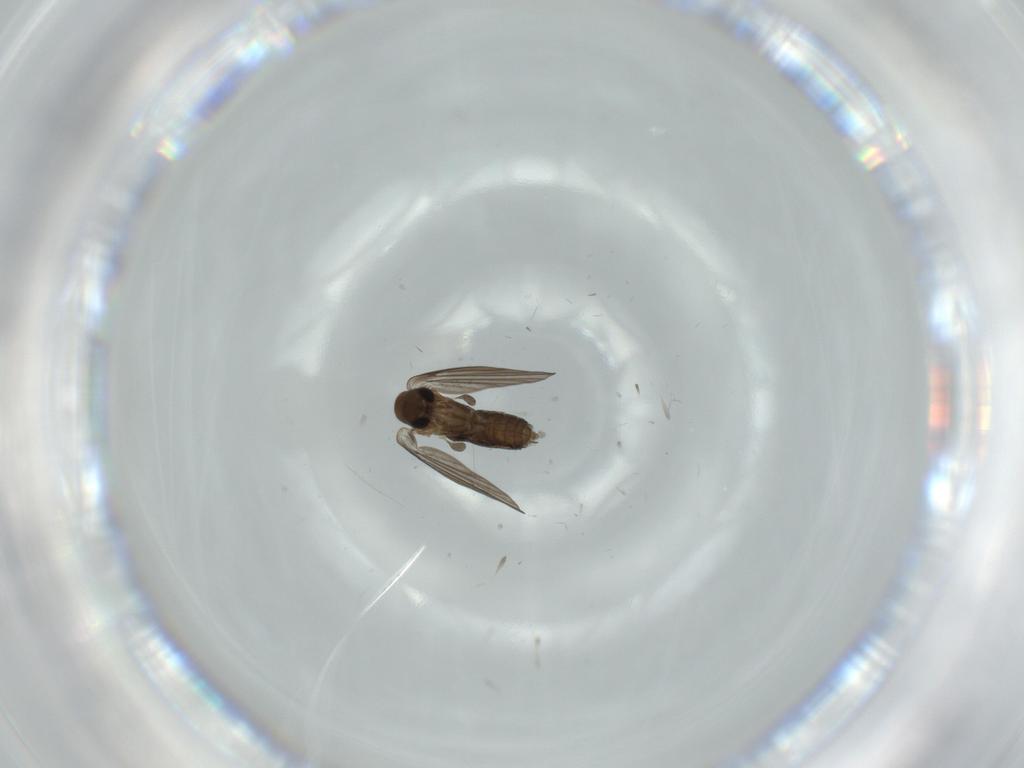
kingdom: Animalia
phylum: Arthropoda
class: Insecta
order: Diptera
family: Psychodidae
